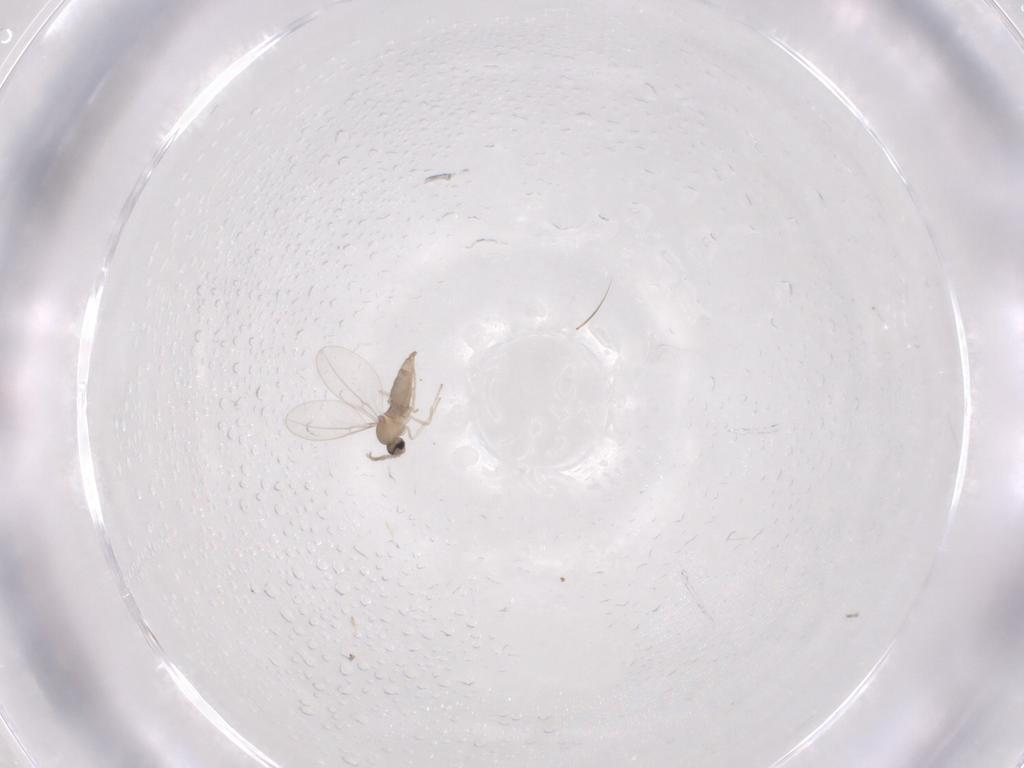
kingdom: Animalia
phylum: Arthropoda
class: Insecta
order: Diptera
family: Cecidomyiidae
